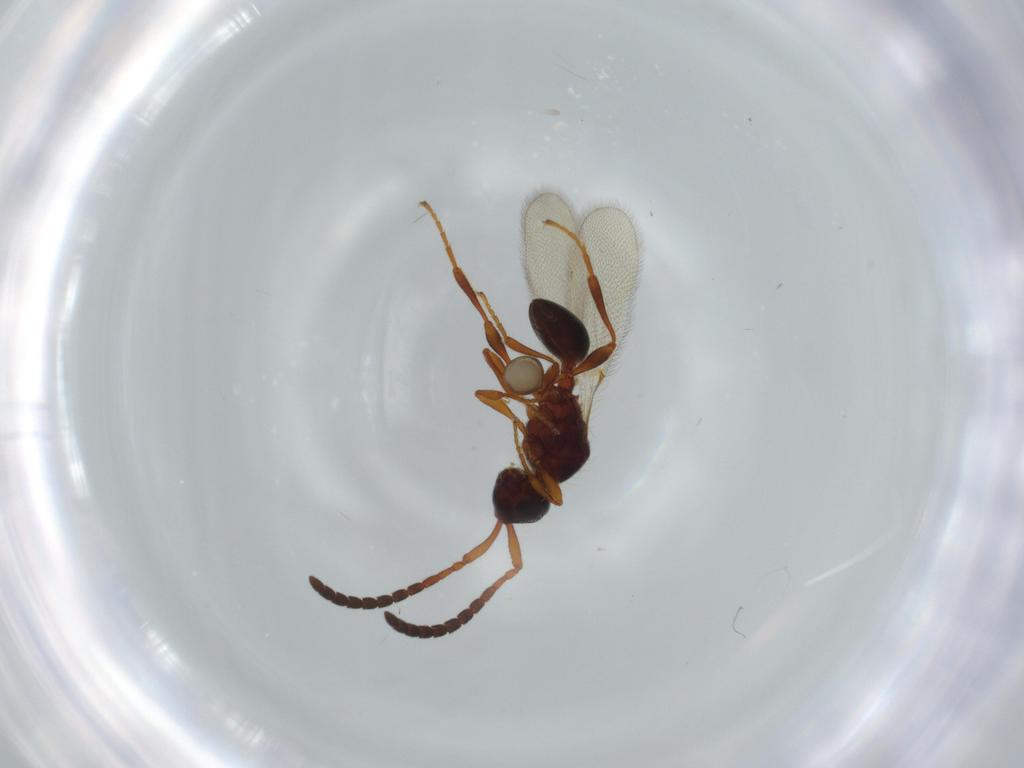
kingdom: Animalia
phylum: Arthropoda
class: Insecta
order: Hymenoptera
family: Diapriidae
